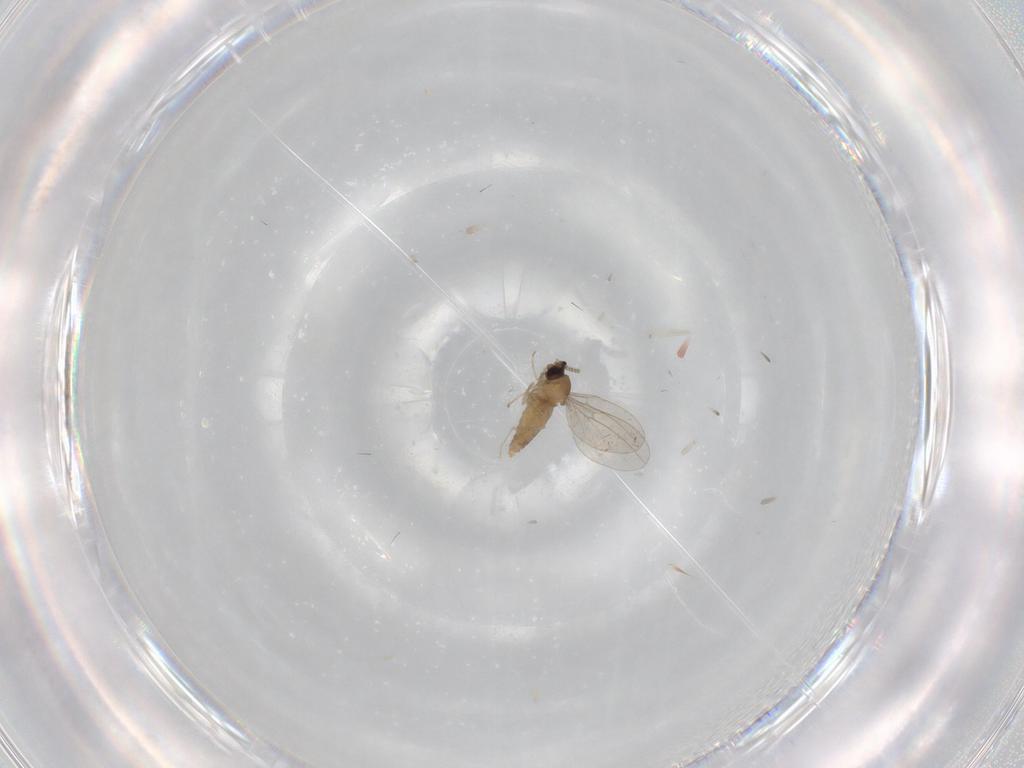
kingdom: Animalia
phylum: Arthropoda
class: Insecta
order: Diptera
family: Cecidomyiidae
